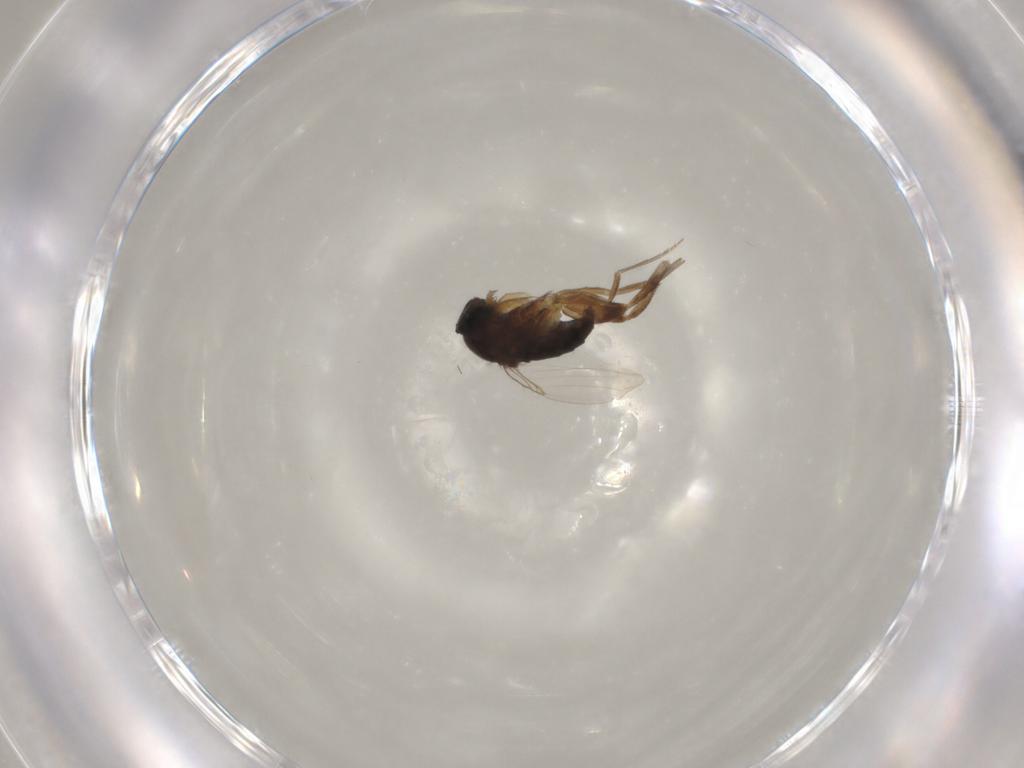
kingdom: Animalia
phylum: Arthropoda
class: Insecta
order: Diptera
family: Phoridae
